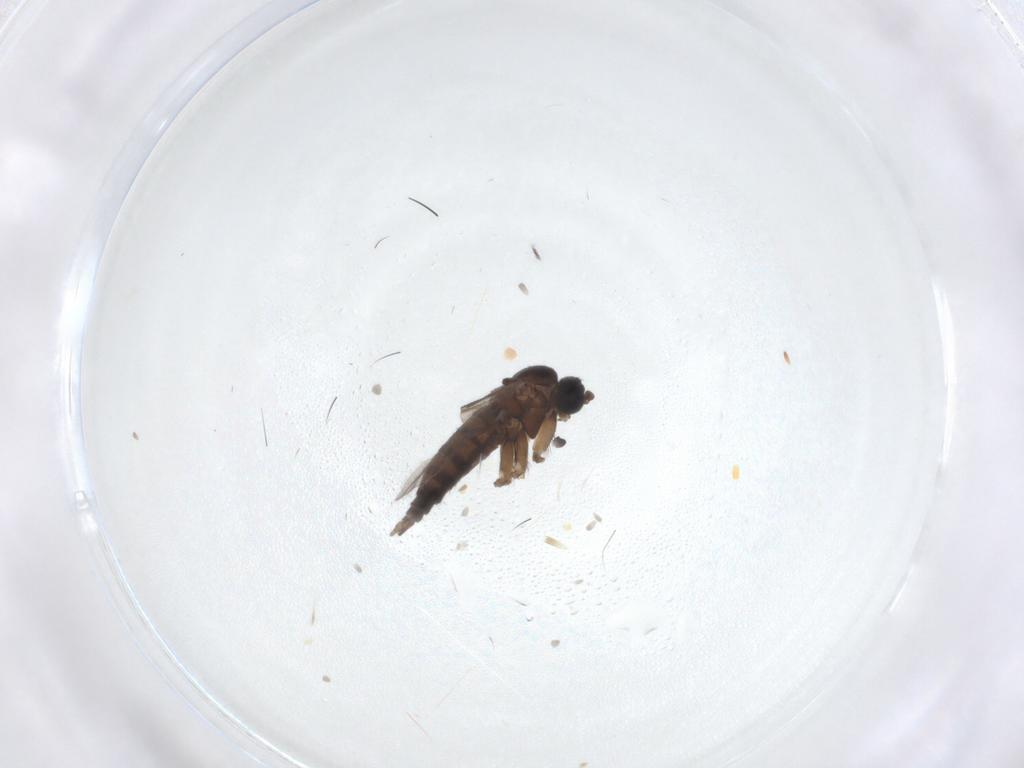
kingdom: Animalia
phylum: Arthropoda
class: Insecta
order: Diptera
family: Sciaridae
